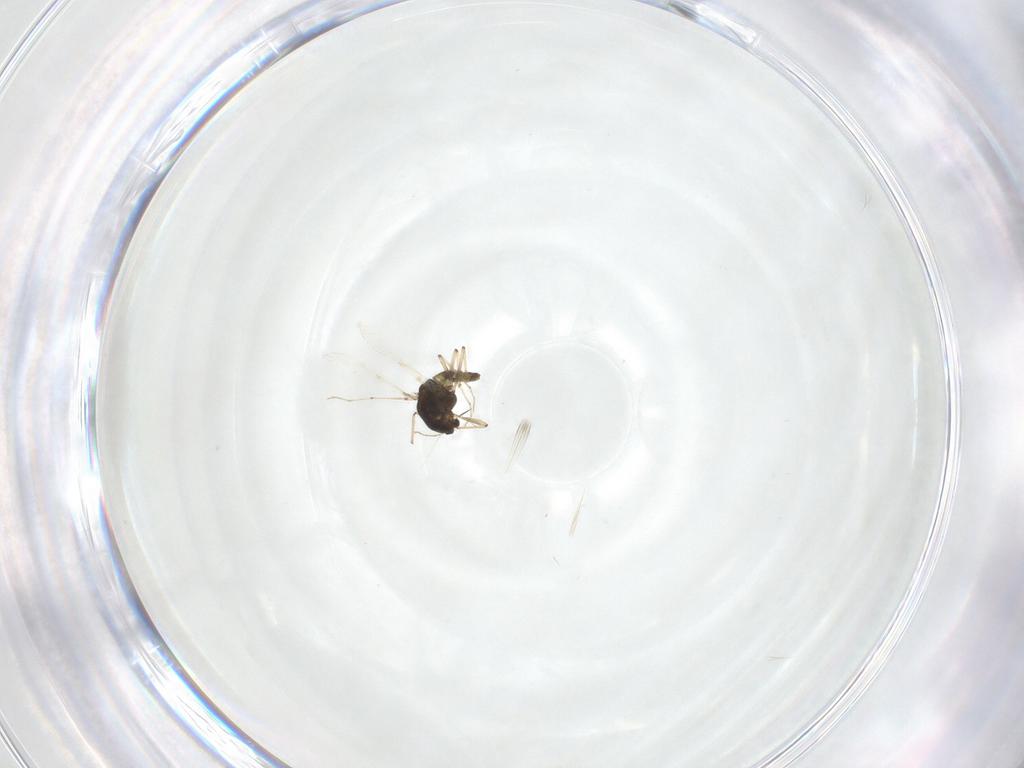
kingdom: Animalia
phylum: Arthropoda
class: Insecta
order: Diptera
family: Chironomidae
